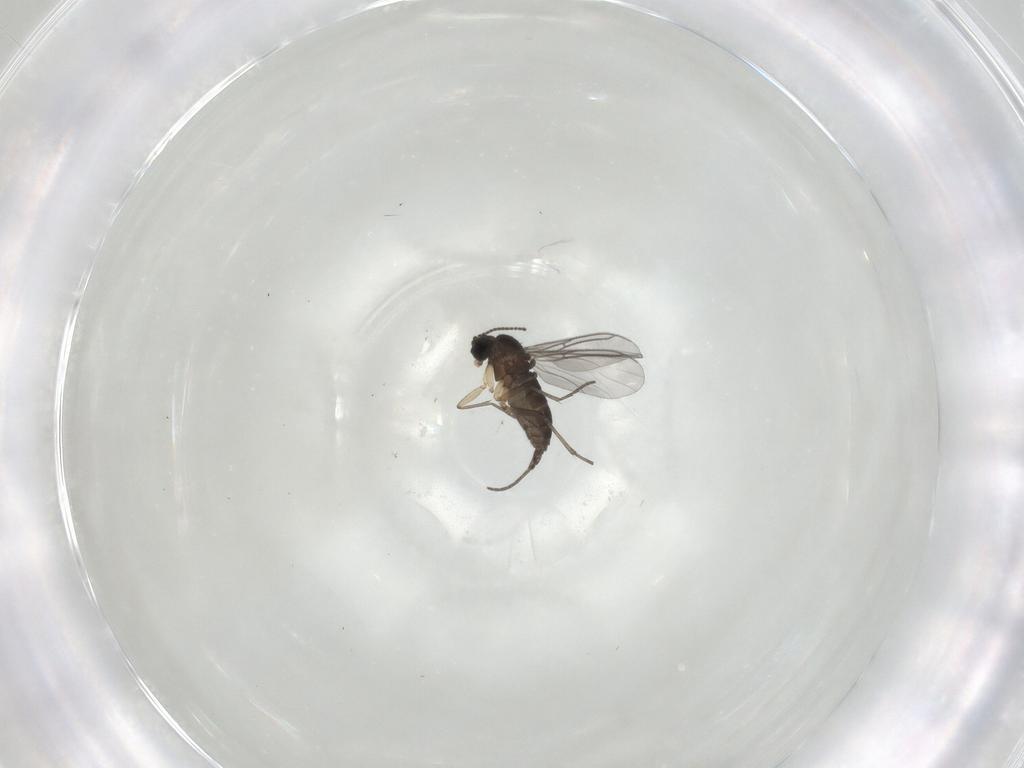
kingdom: Animalia
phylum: Arthropoda
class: Insecta
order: Diptera
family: Sciaridae
